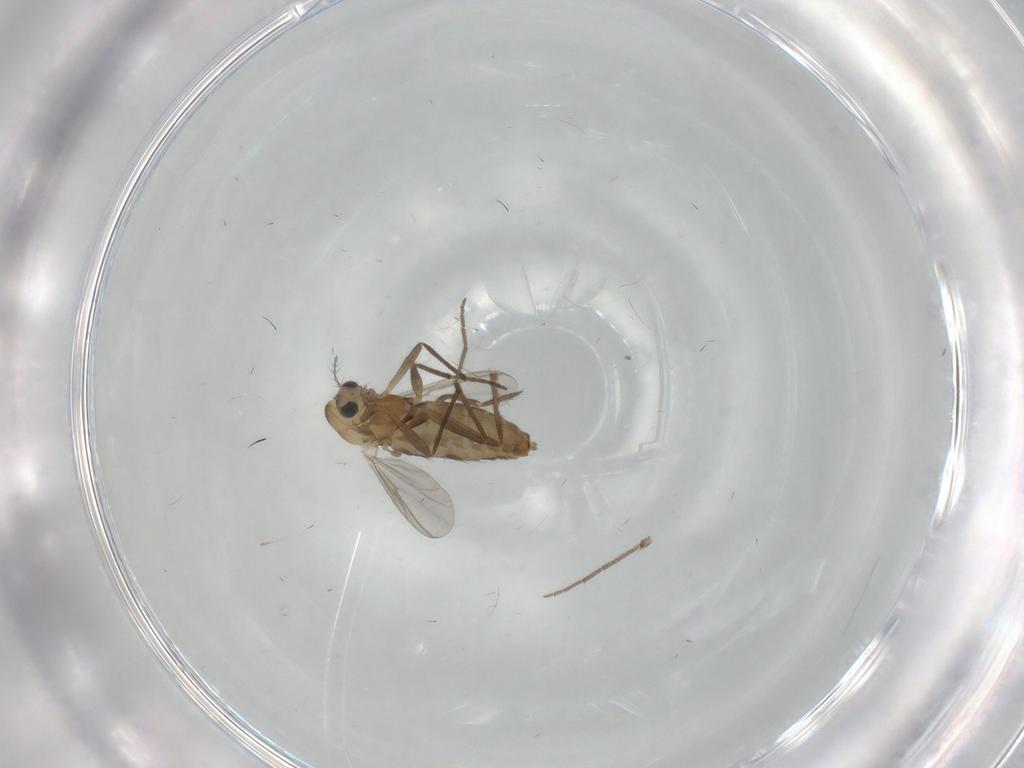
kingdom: Animalia
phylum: Arthropoda
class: Insecta
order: Diptera
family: Chironomidae
